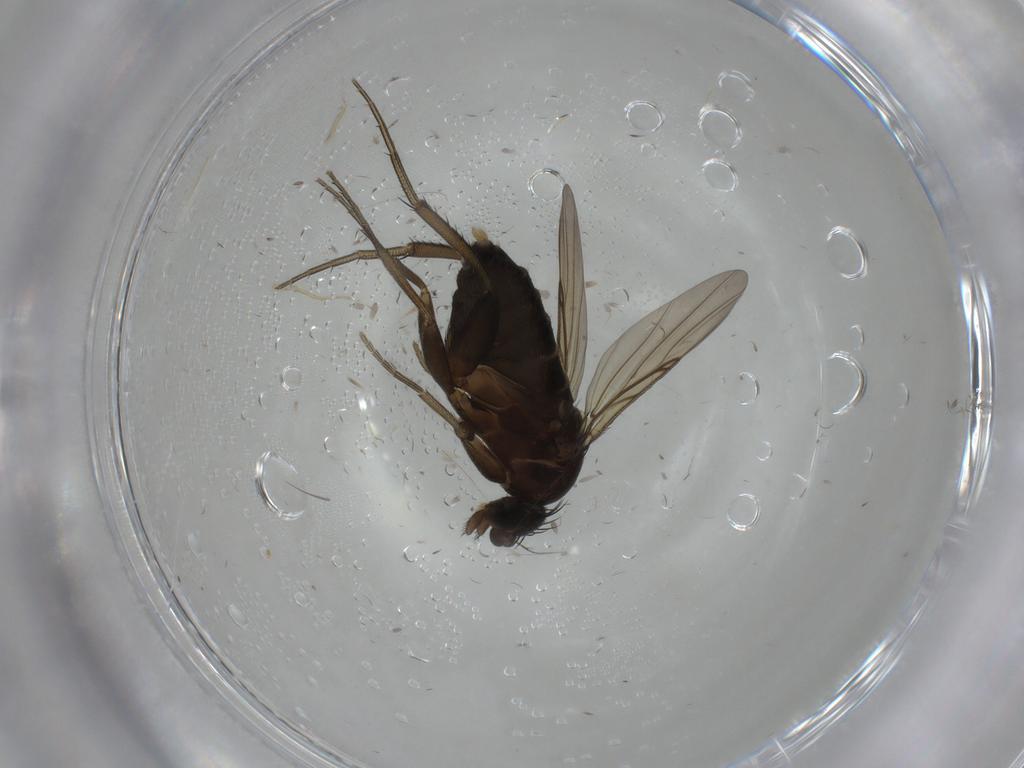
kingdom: Animalia
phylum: Arthropoda
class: Insecta
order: Diptera
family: Phoridae
